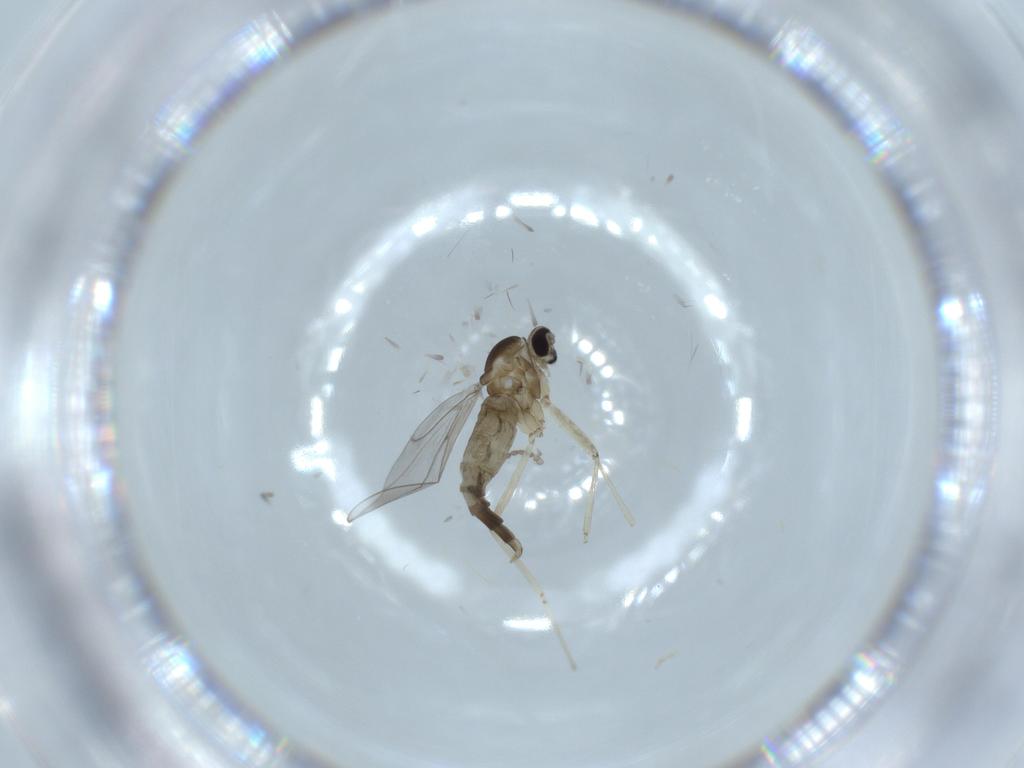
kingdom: Animalia
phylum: Arthropoda
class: Insecta
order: Diptera
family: Cecidomyiidae
